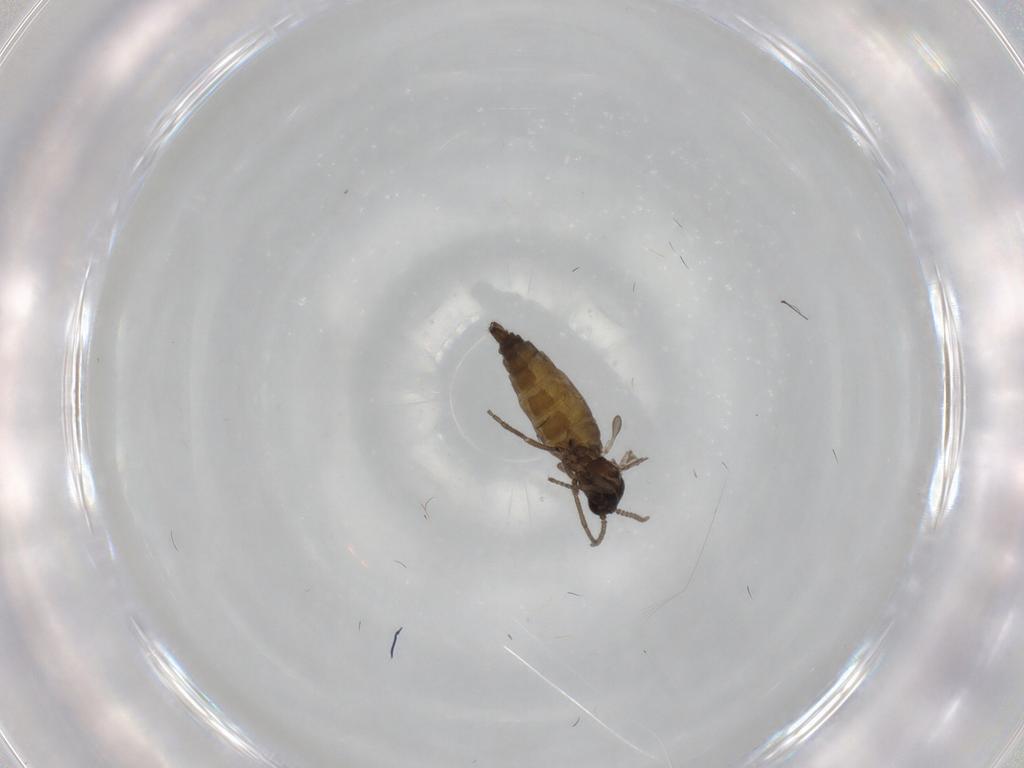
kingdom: Animalia
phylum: Arthropoda
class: Insecta
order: Diptera
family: Sciaridae
